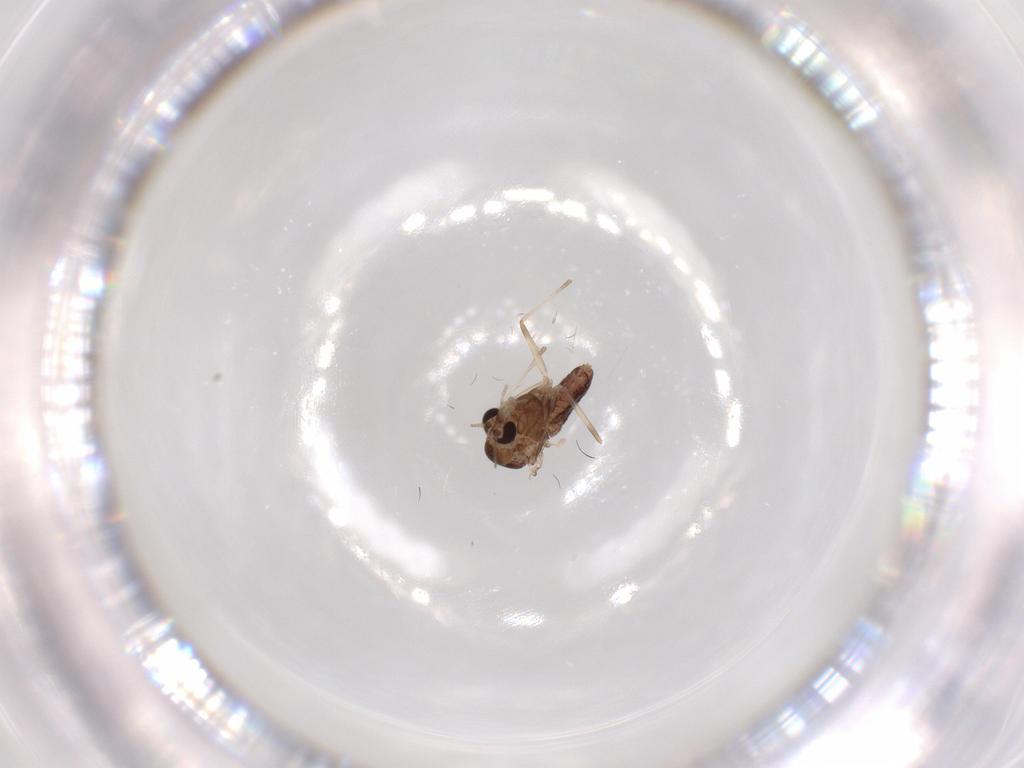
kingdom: Animalia
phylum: Arthropoda
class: Insecta
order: Diptera
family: Chironomidae
